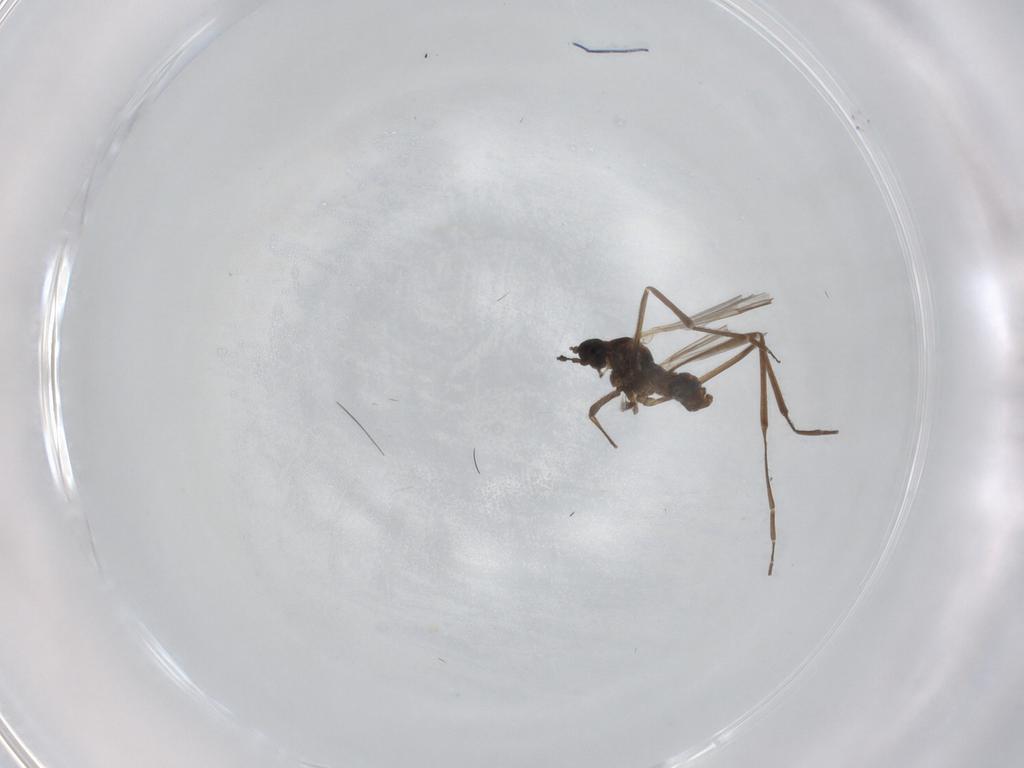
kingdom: Animalia
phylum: Arthropoda
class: Insecta
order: Diptera
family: Cecidomyiidae
